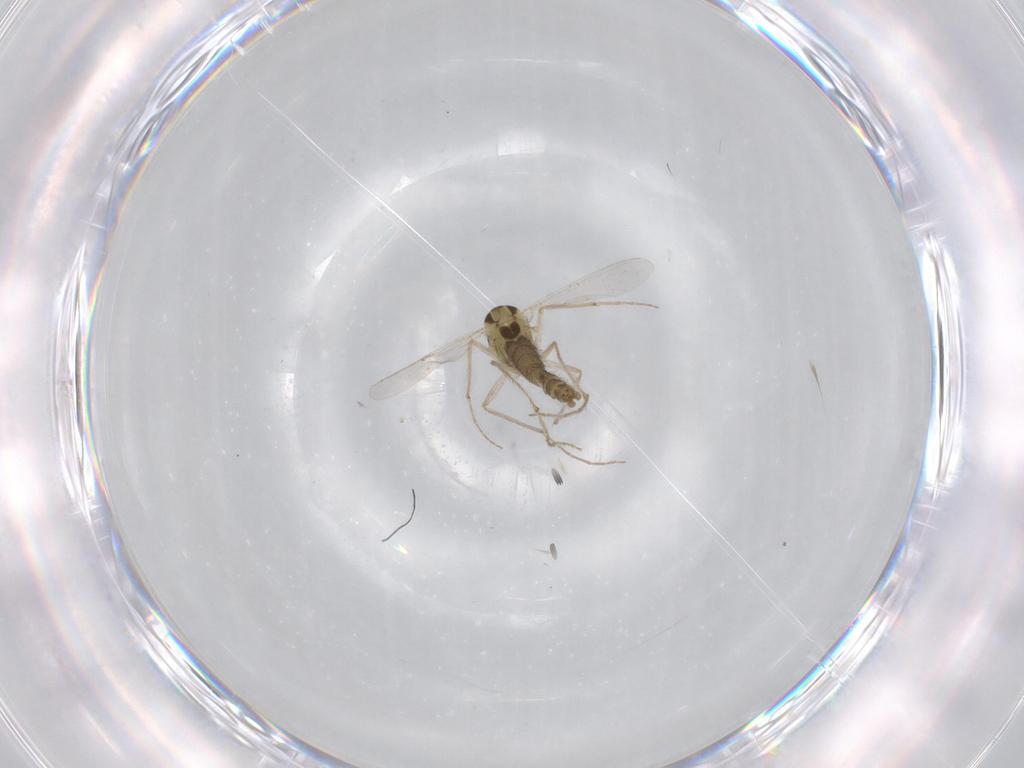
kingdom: Animalia
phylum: Arthropoda
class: Insecta
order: Diptera
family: Chironomidae
